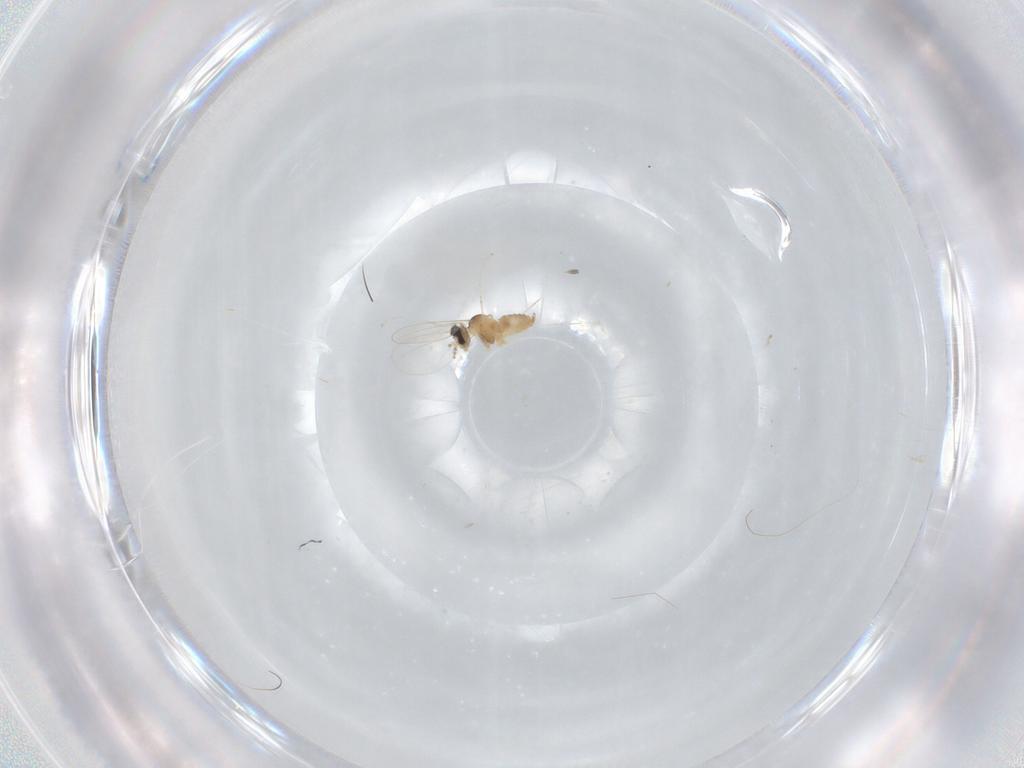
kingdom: Animalia
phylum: Arthropoda
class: Insecta
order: Diptera
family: Cecidomyiidae
